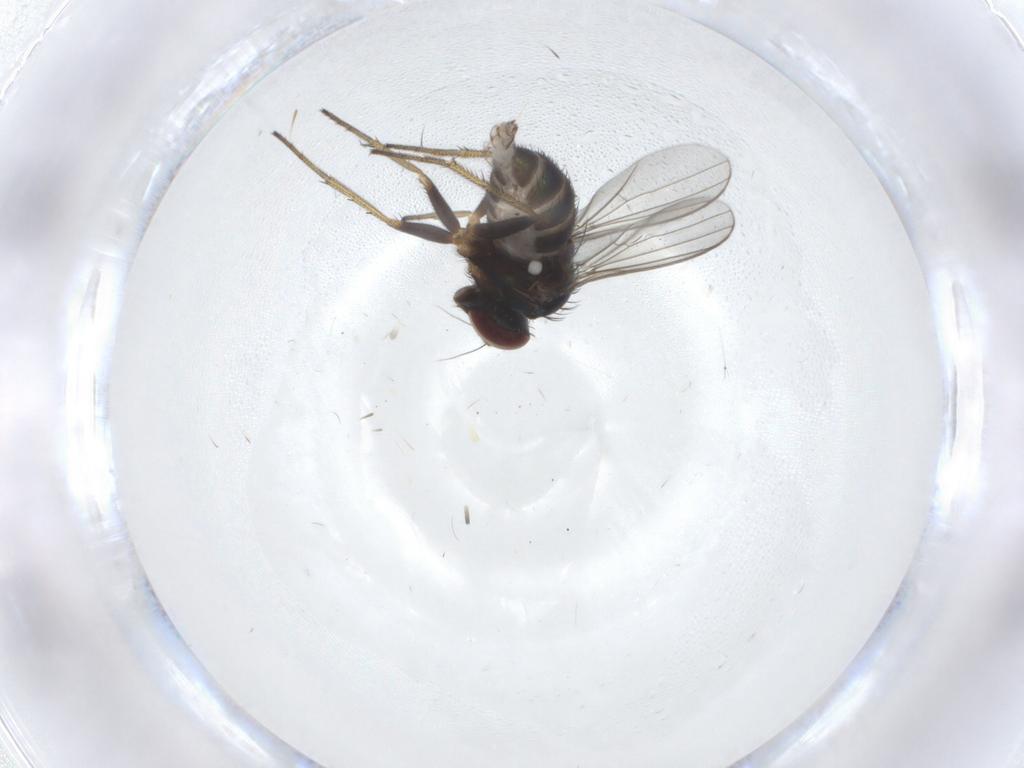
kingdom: Animalia
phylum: Arthropoda
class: Insecta
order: Diptera
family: Dolichopodidae
